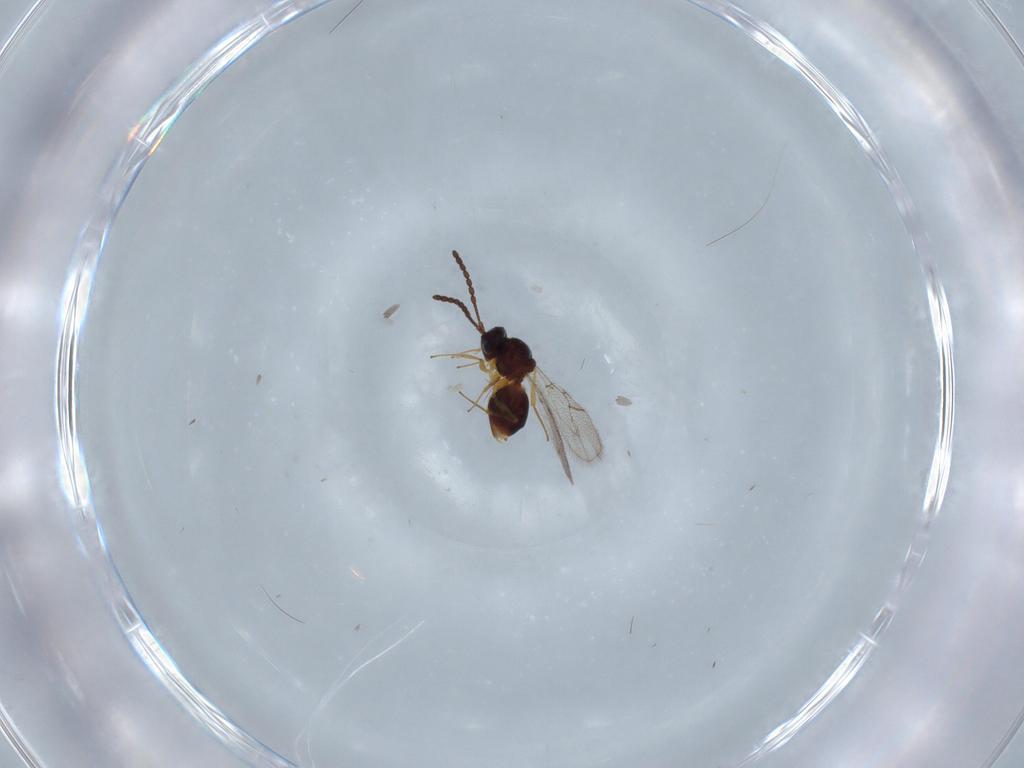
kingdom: Animalia
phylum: Arthropoda
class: Insecta
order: Hymenoptera
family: Figitidae
